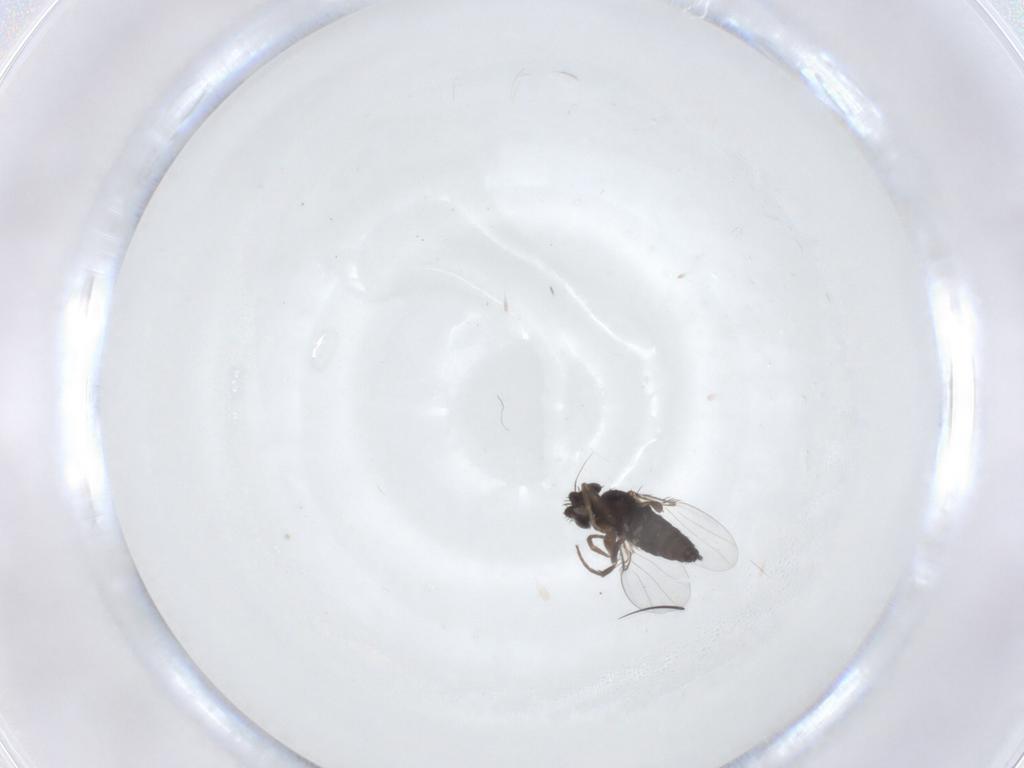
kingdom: Animalia
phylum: Arthropoda
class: Insecta
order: Diptera
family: Phoridae
